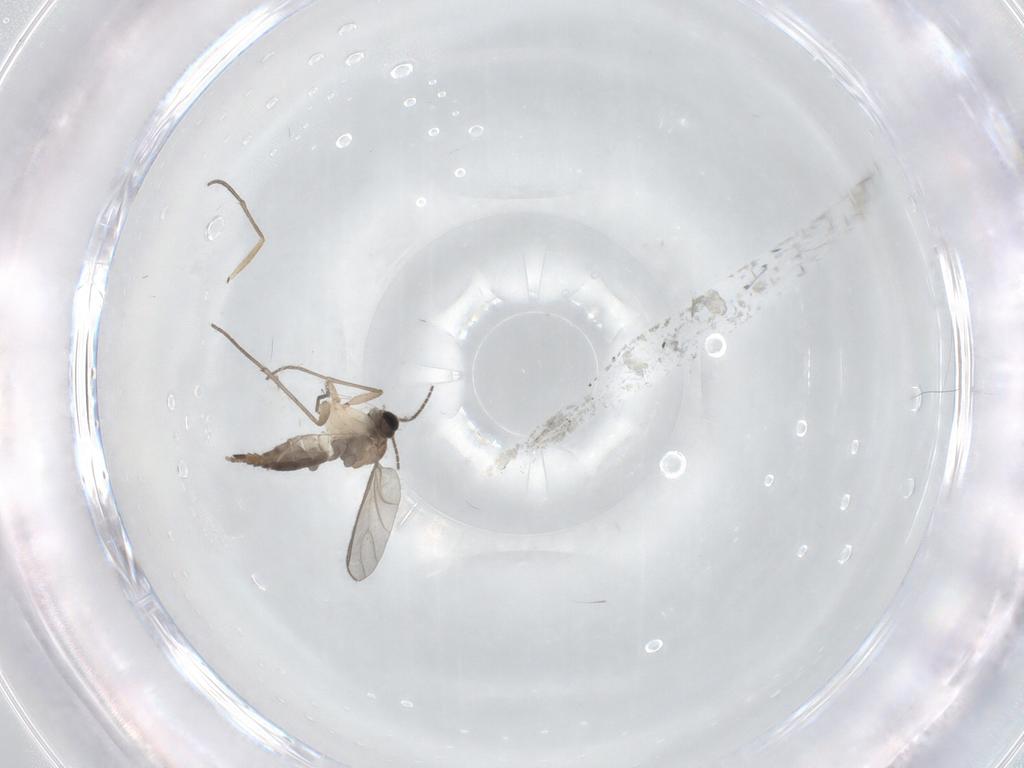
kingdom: Animalia
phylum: Arthropoda
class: Insecta
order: Diptera
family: Sciaridae
